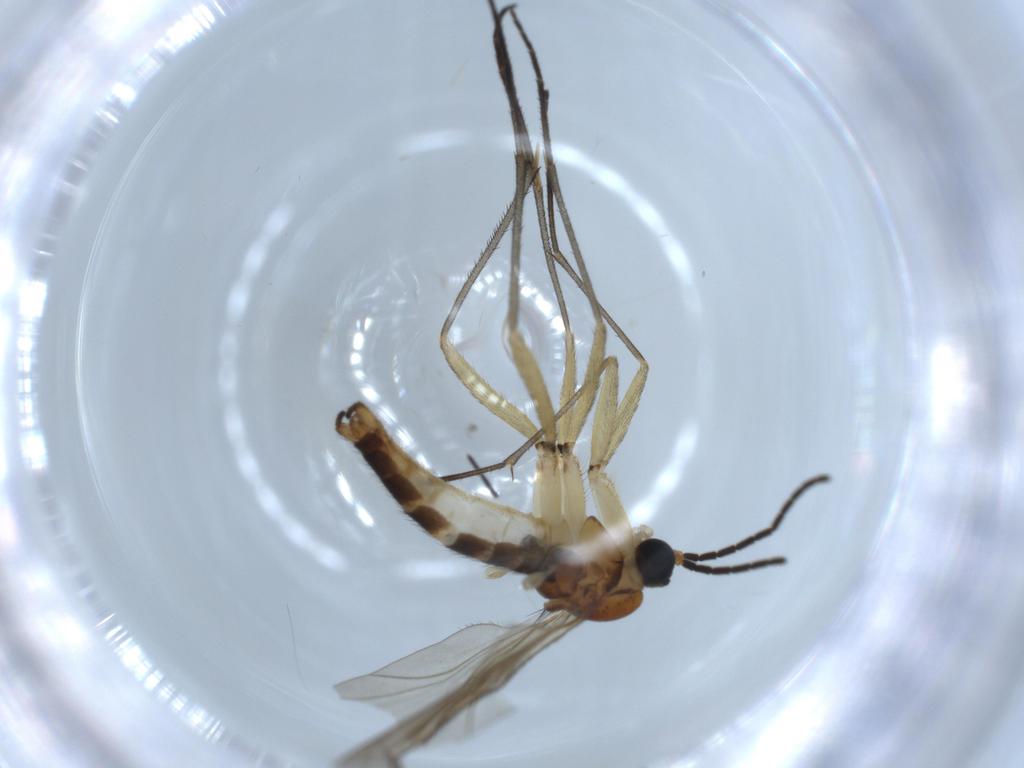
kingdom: Animalia
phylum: Arthropoda
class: Insecta
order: Diptera
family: Sciaridae
